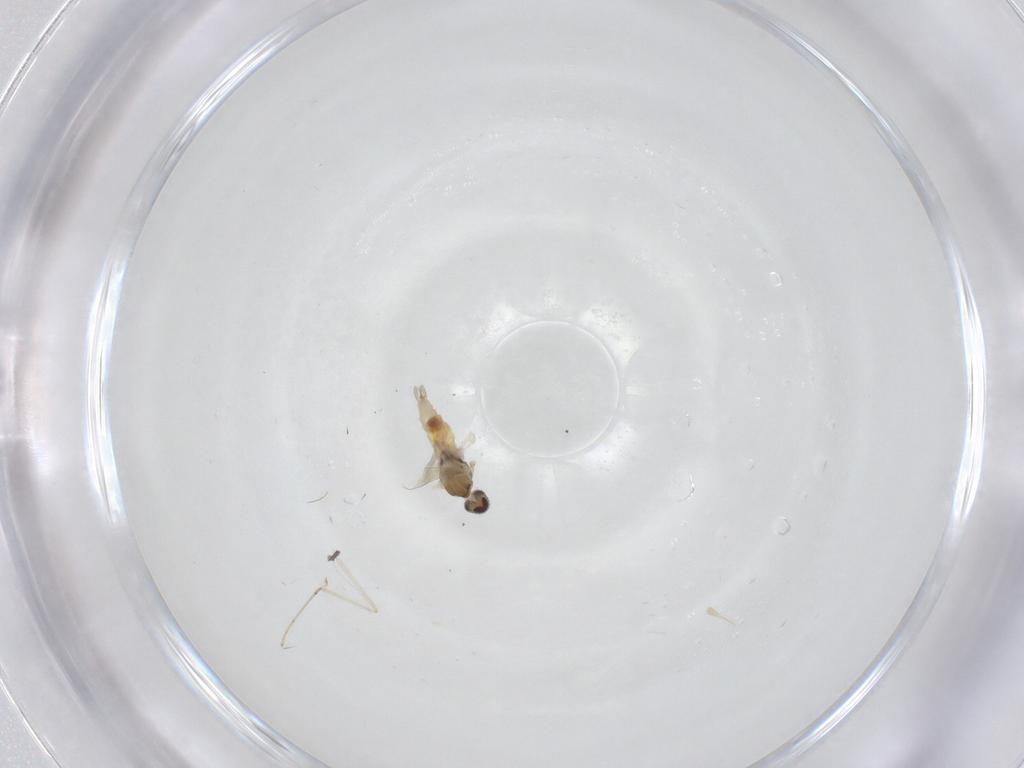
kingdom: Animalia
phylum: Arthropoda
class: Insecta
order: Diptera
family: Cecidomyiidae
